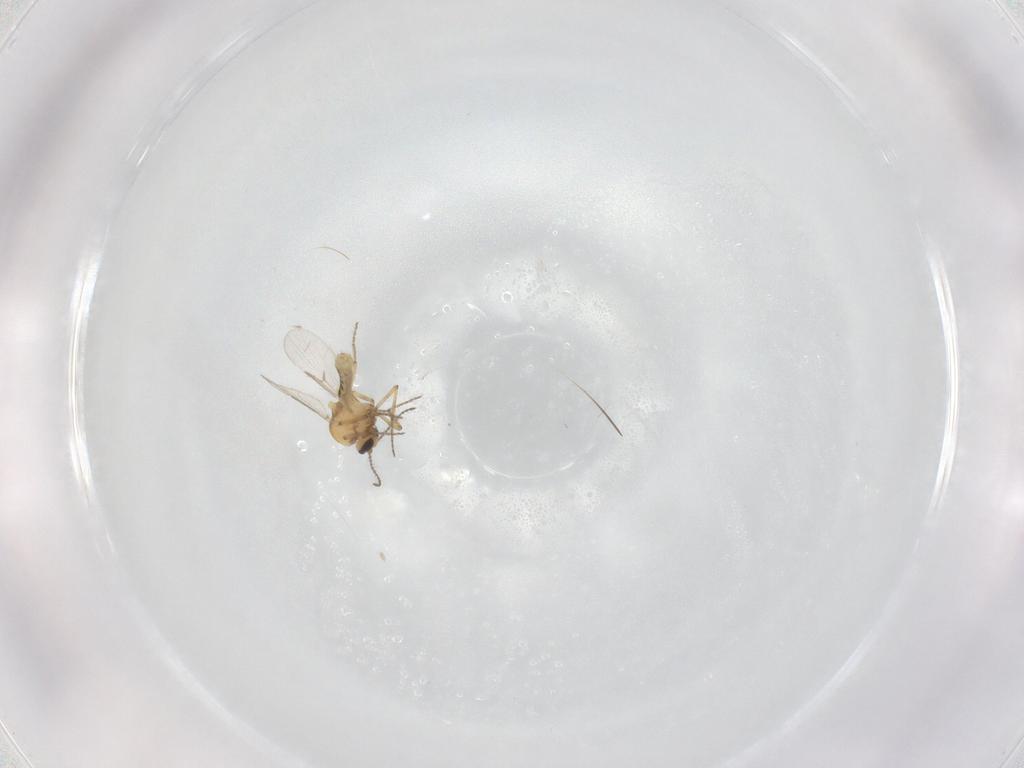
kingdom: Animalia
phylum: Arthropoda
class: Insecta
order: Diptera
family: Ceratopogonidae
